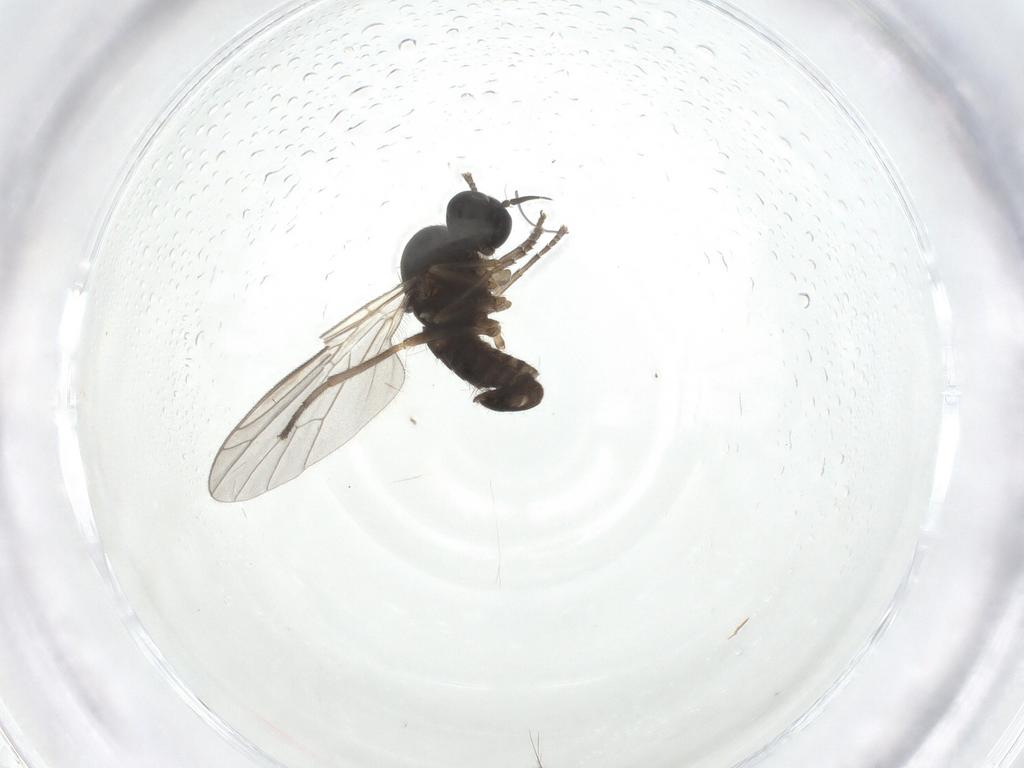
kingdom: Animalia
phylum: Arthropoda
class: Insecta
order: Diptera
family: Empididae
